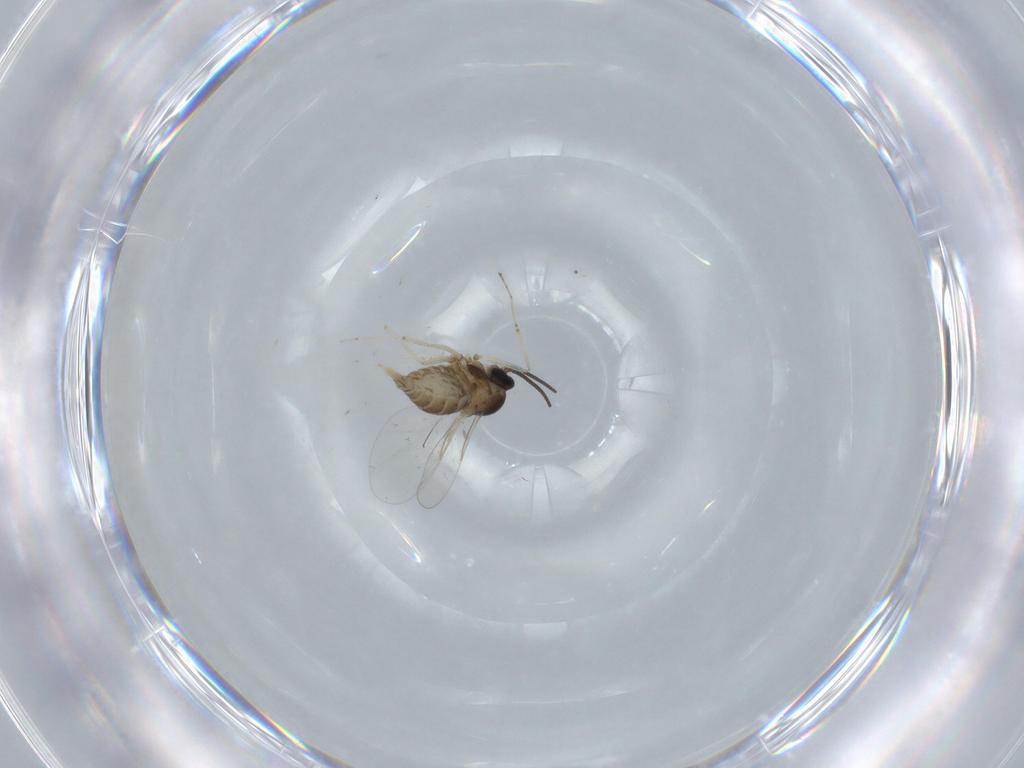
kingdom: Animalia
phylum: Arthropoda
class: Insecta
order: Diptera
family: Cecidomyiidae
